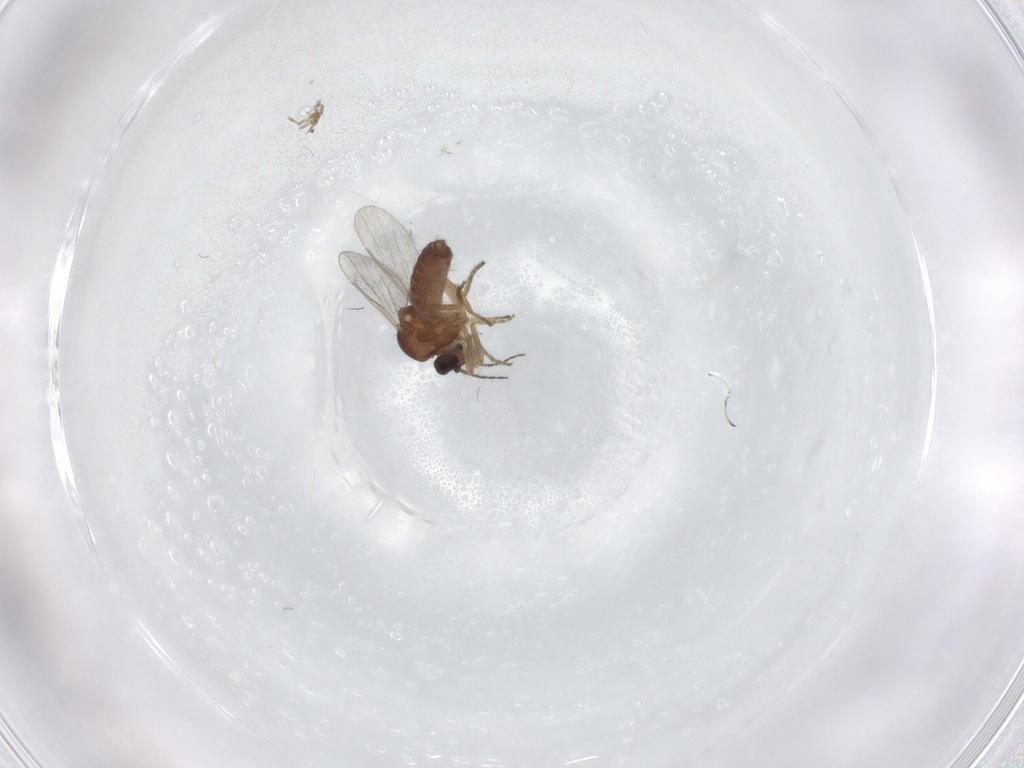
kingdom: Animalia
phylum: Arthropoda
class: Insecta
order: Diptera
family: Ceratopogonidae
